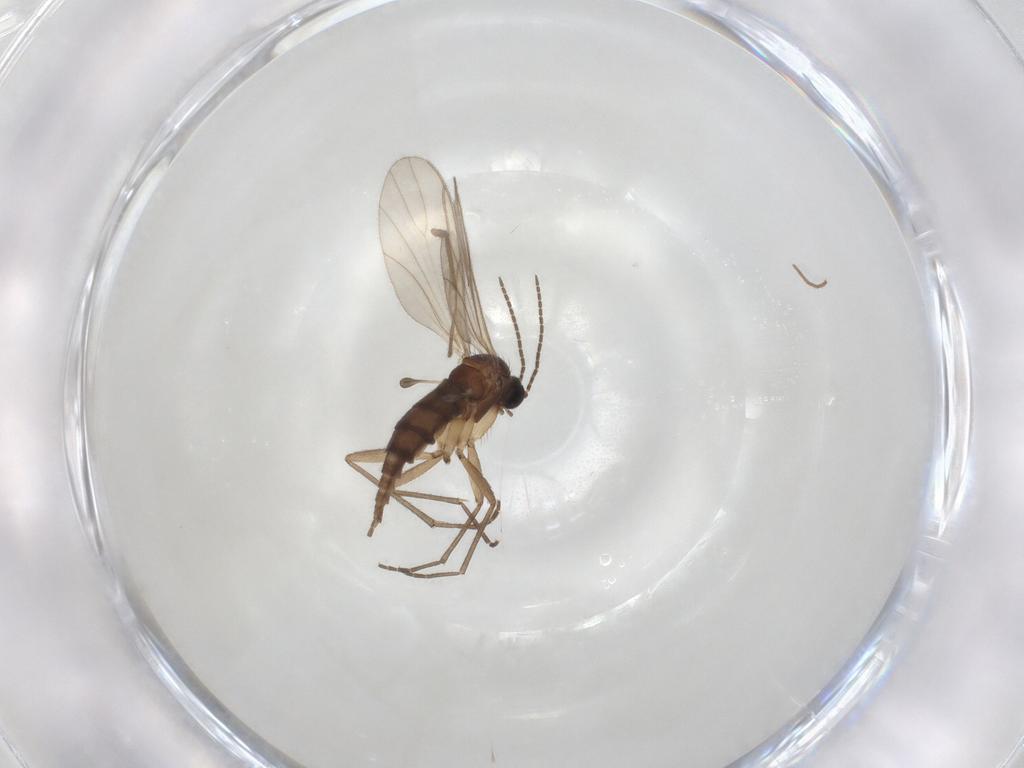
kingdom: Animalia
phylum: Arthropoda
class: Insecta
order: Diptera
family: Sciaridae
